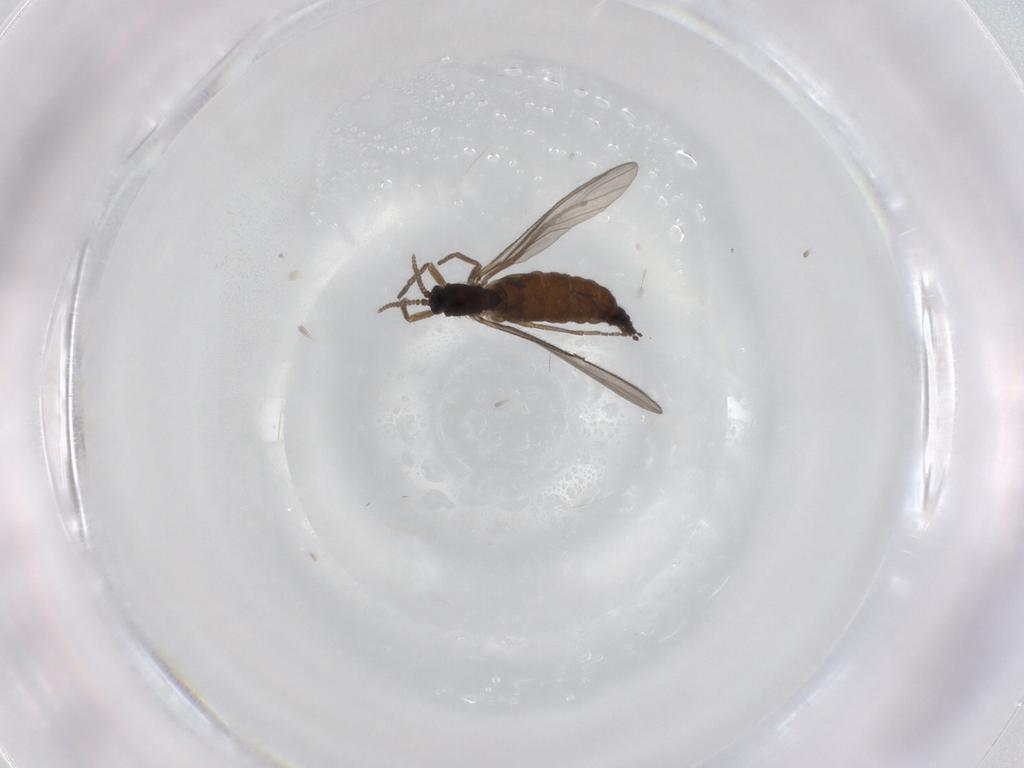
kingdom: Animalia
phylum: Arthropoda
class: Insecta
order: Diptera
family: Sciaridae
